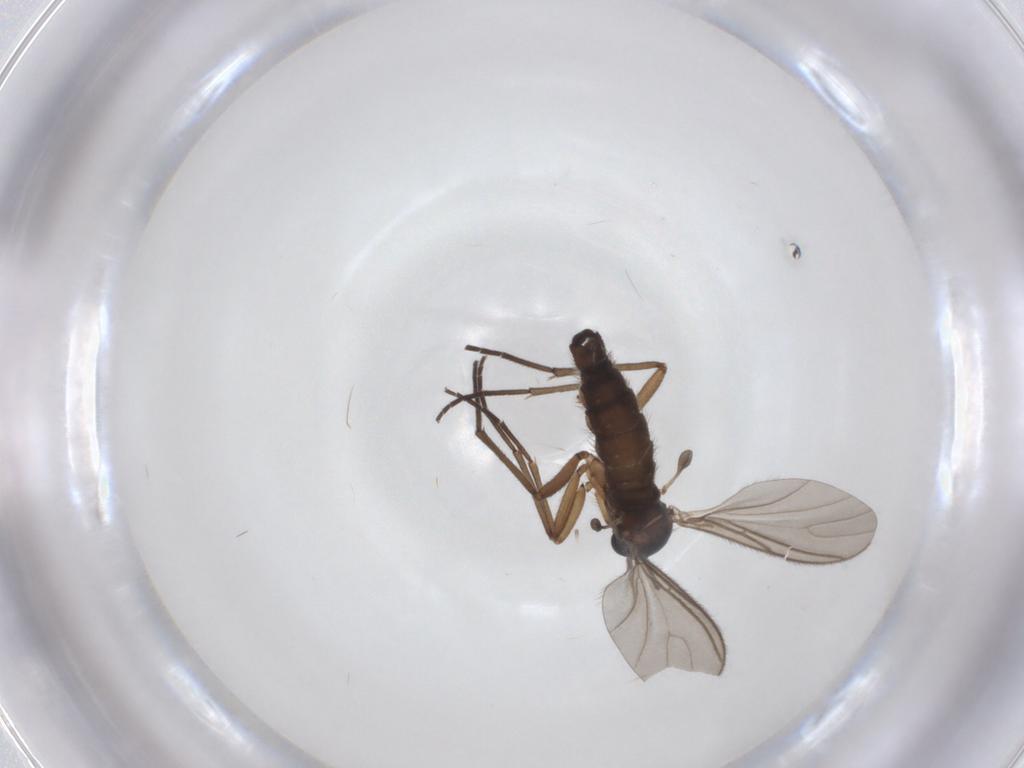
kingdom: Animalia
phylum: Arthropoda
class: Insecta
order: Diptera
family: Sciaridae
